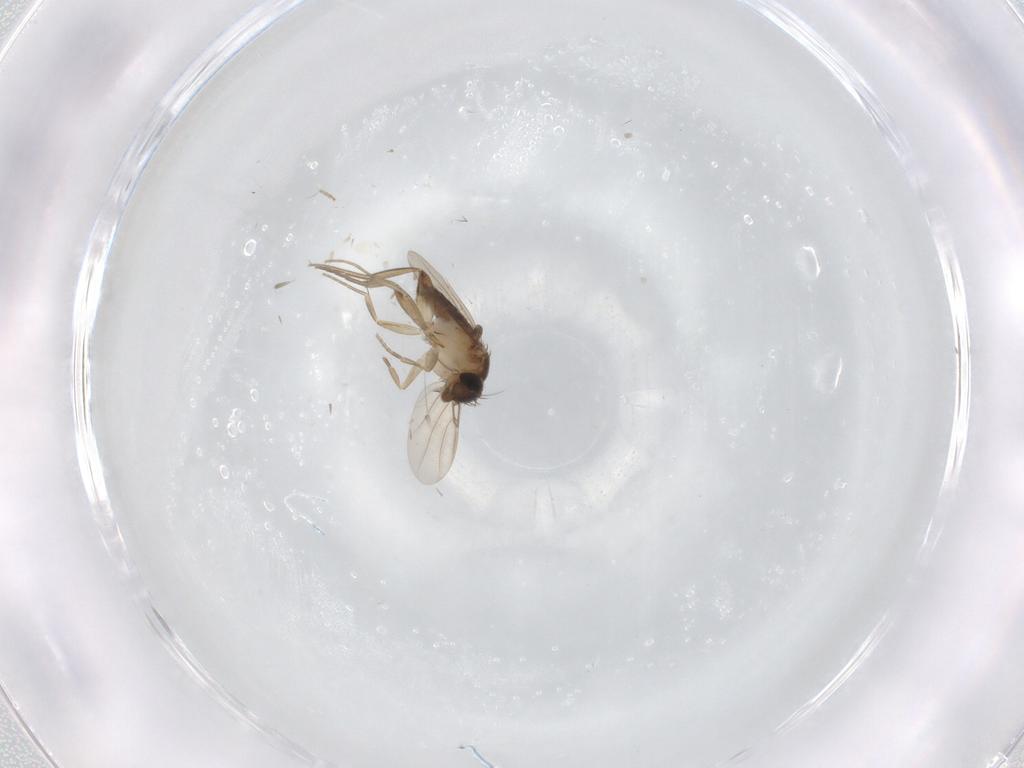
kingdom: Animalia
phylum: Arthropoda
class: Insecta
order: Diptera
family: Phoridae
